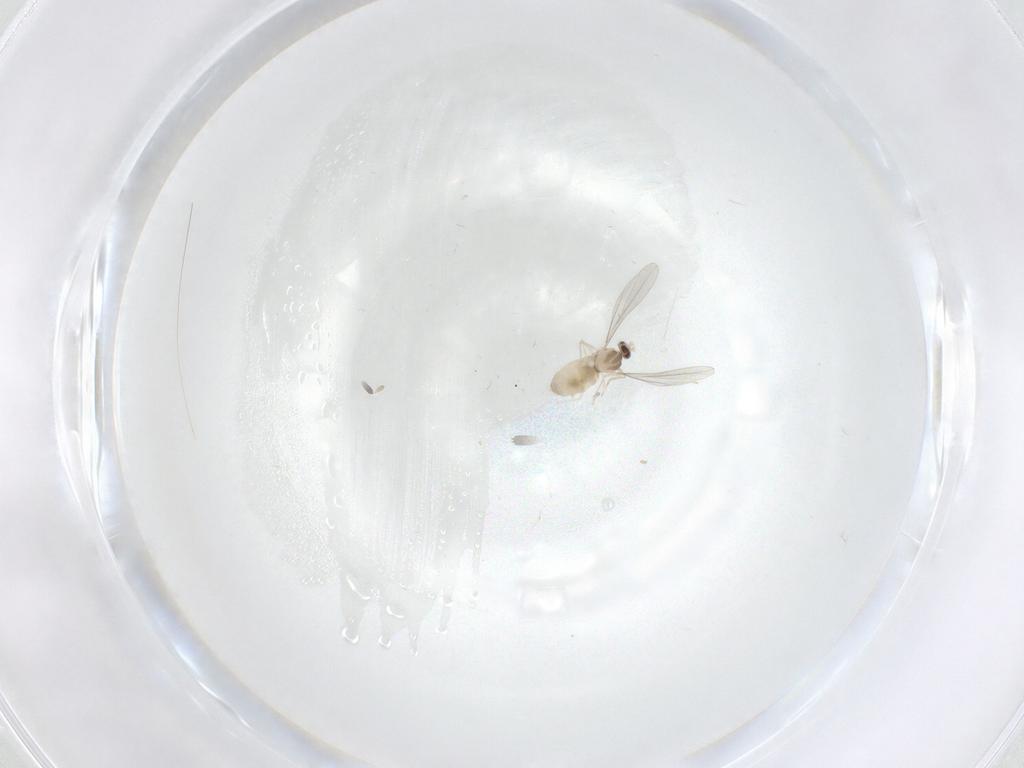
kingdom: Animalia
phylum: Arthropoda
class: Insecta
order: Diptera
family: Cecidomyiidae
